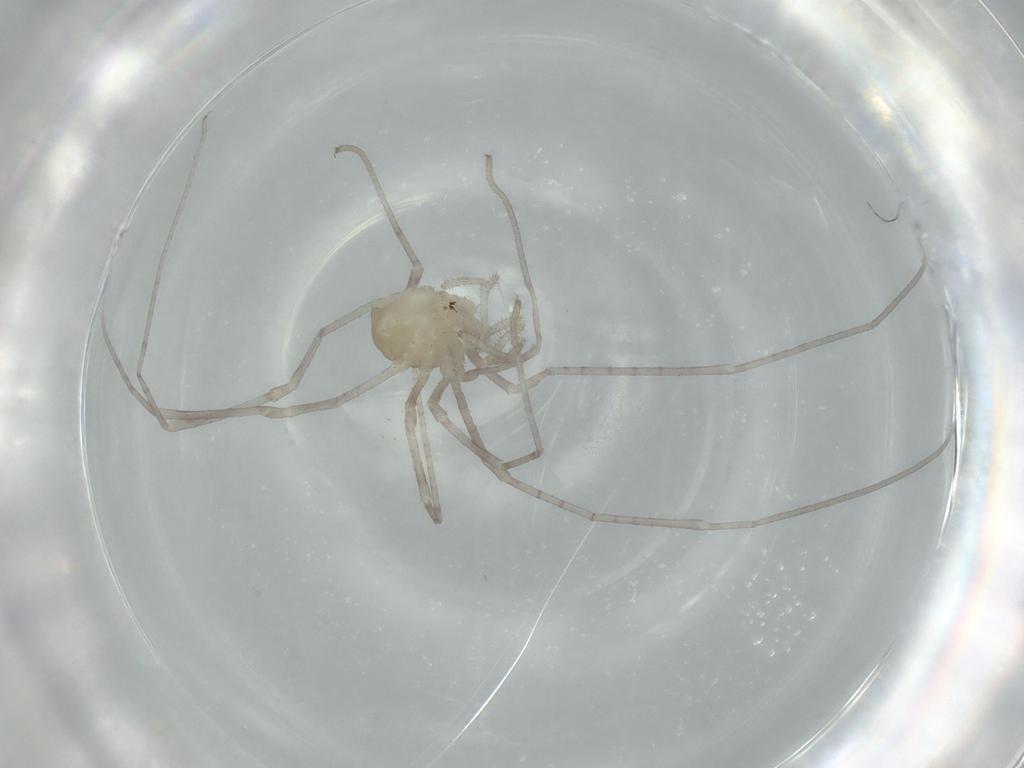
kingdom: Animalia
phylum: Arthropoda
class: Arachnida
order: Opiliones
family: Sclerosomatidae
